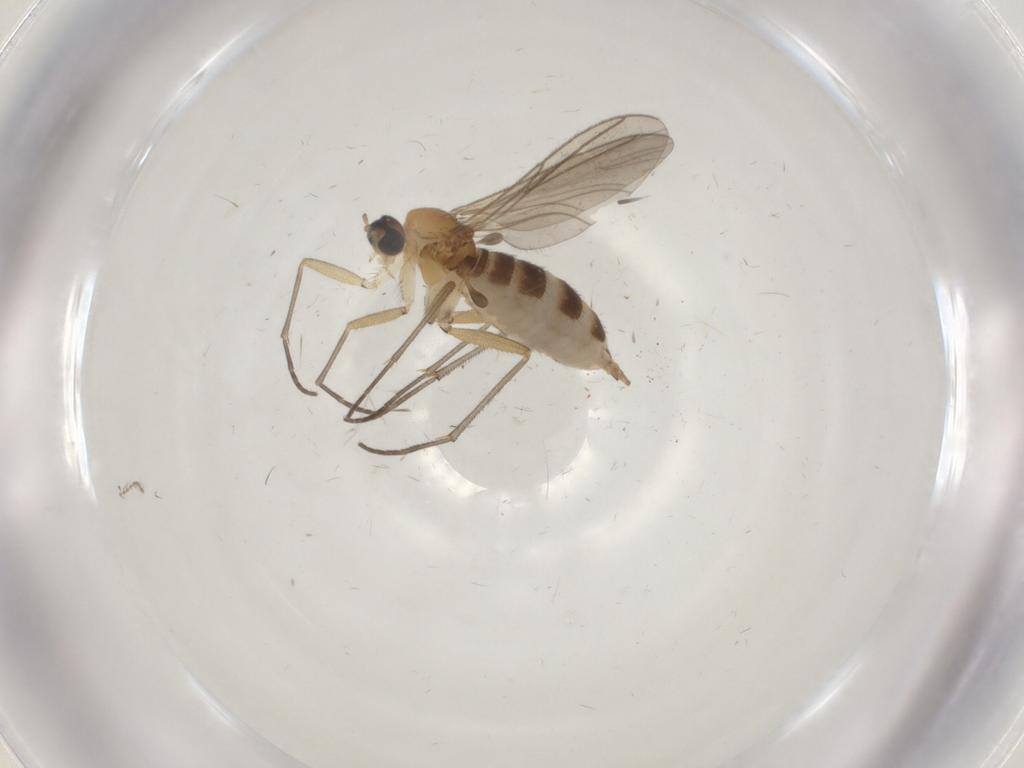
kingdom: Animalia
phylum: Arthropoda
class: Insecta
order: Diptera
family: Sciaridae
